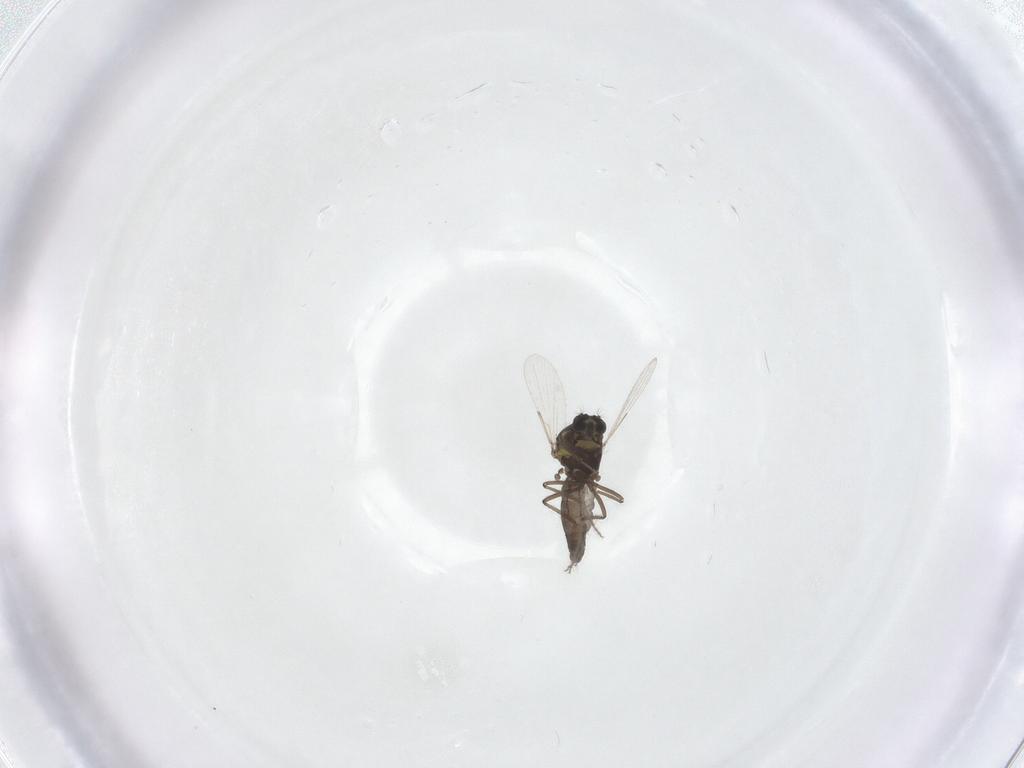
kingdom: Animalia
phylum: Arthropoda
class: Insecta
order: Diptera
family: Ceratopogonidae
